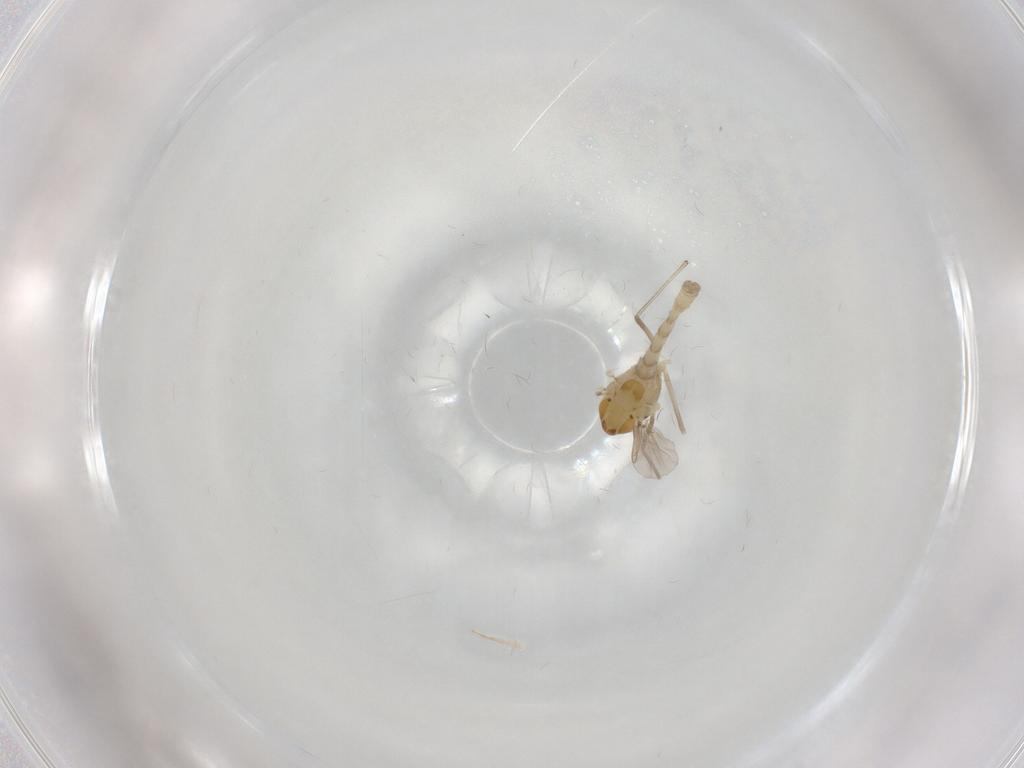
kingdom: Animalia
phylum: Arthropoda
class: Insecta
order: Diptera
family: Chironomidae
